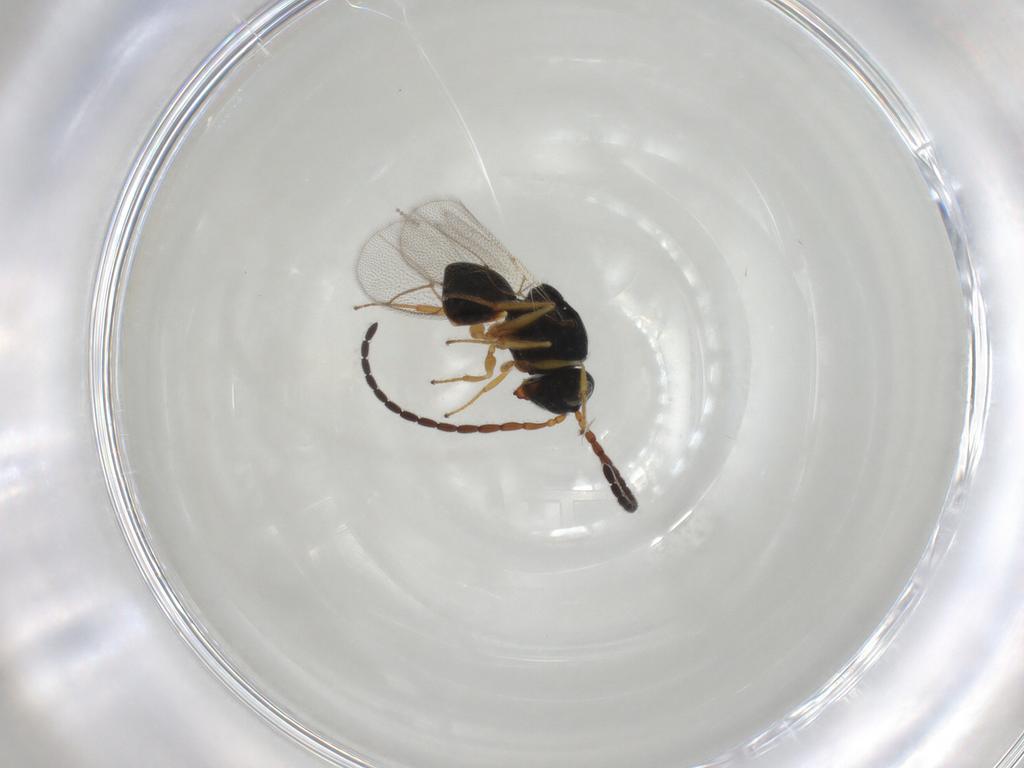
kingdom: Animalia
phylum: Arthropoda
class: Insecta
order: Hymenoptera
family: Figitidae
